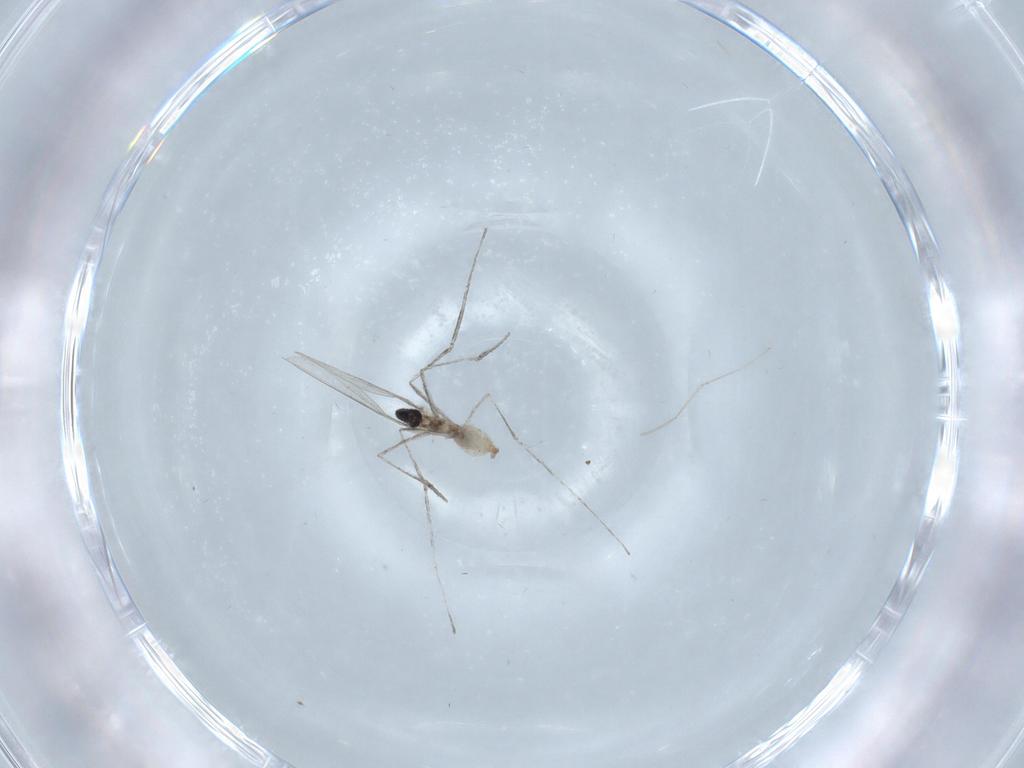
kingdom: Animalia
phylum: Arthropoda
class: Insecta
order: Diptera
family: Cecidomyiidae
